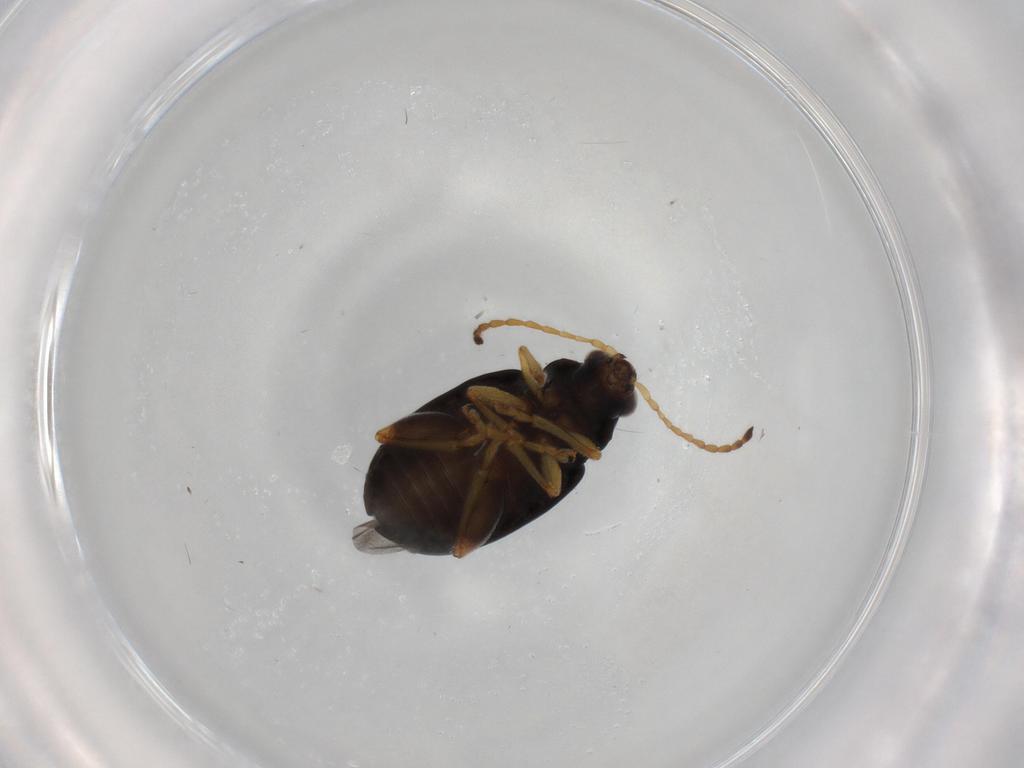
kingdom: Animalia
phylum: Arthropoda
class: Insecta
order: Coleoptera
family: Chrysomelidae
